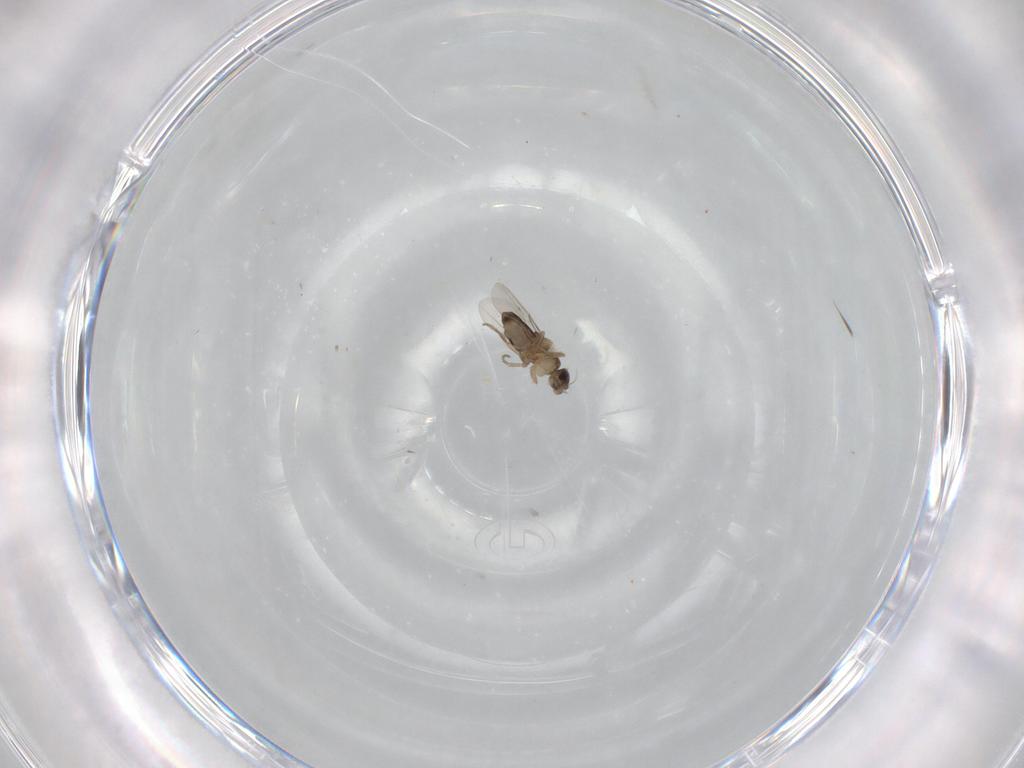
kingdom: Animalia
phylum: Arthropoda
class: Insecta
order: Diptera
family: Phoridae
